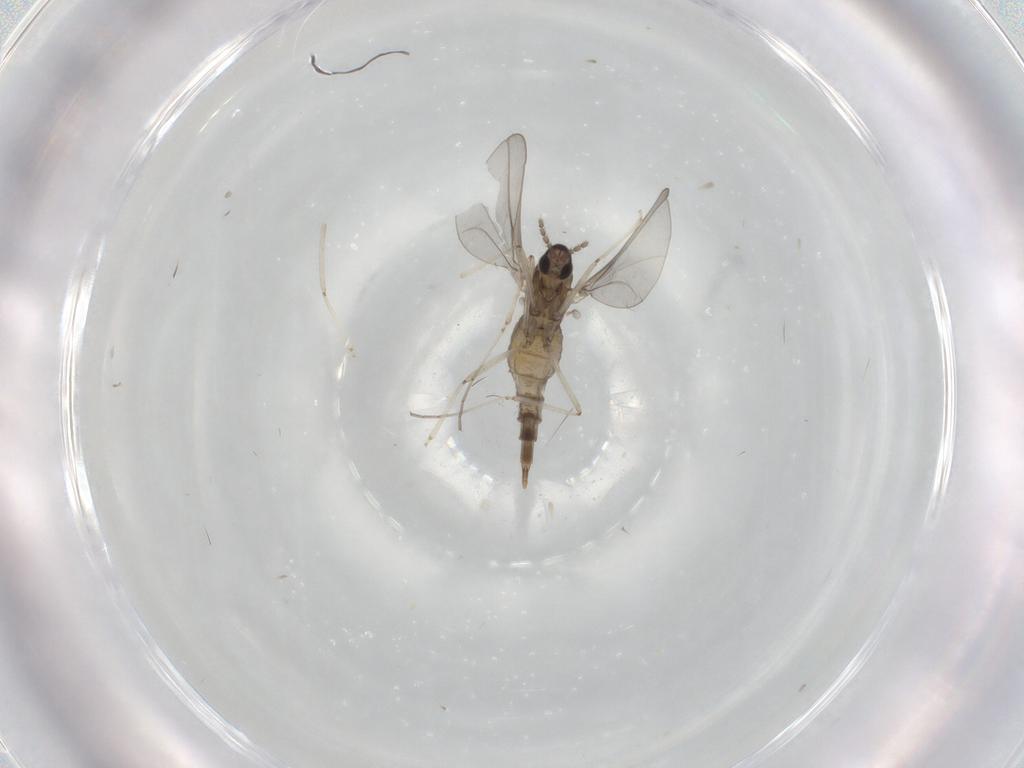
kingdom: Animalia
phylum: Arthropoda
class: Insecta
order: Diptera
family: Cecidomyiidae
